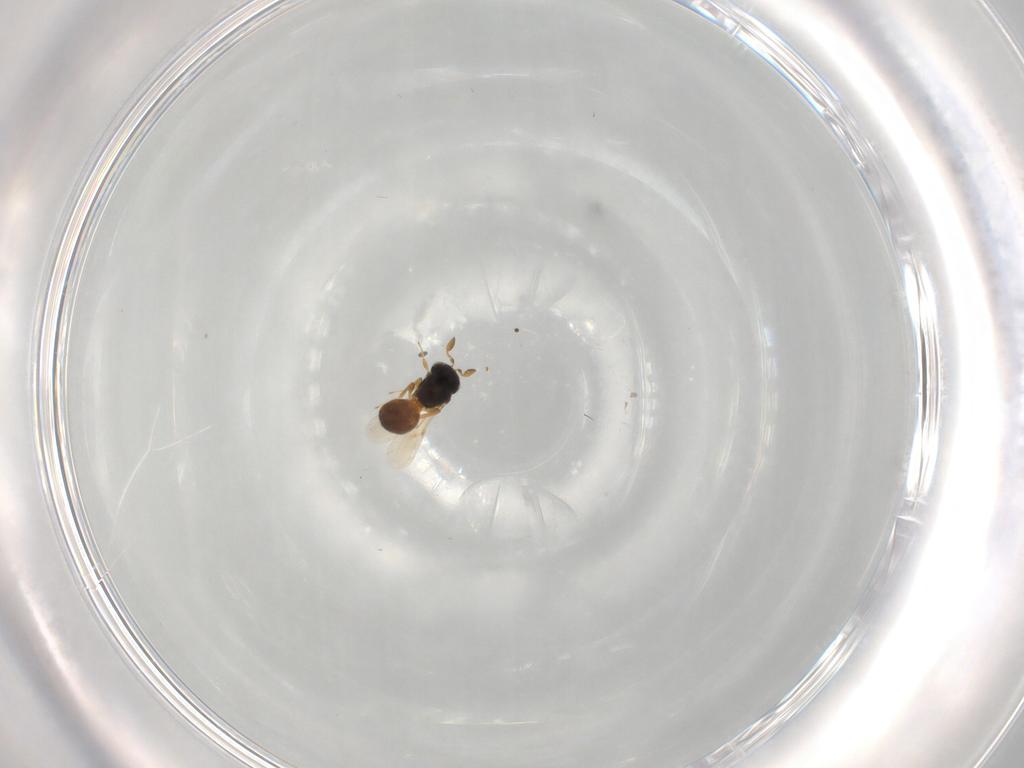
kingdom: Animalia
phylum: Arthropoda
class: Insecta
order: Hymenoptera
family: Scelionidae
